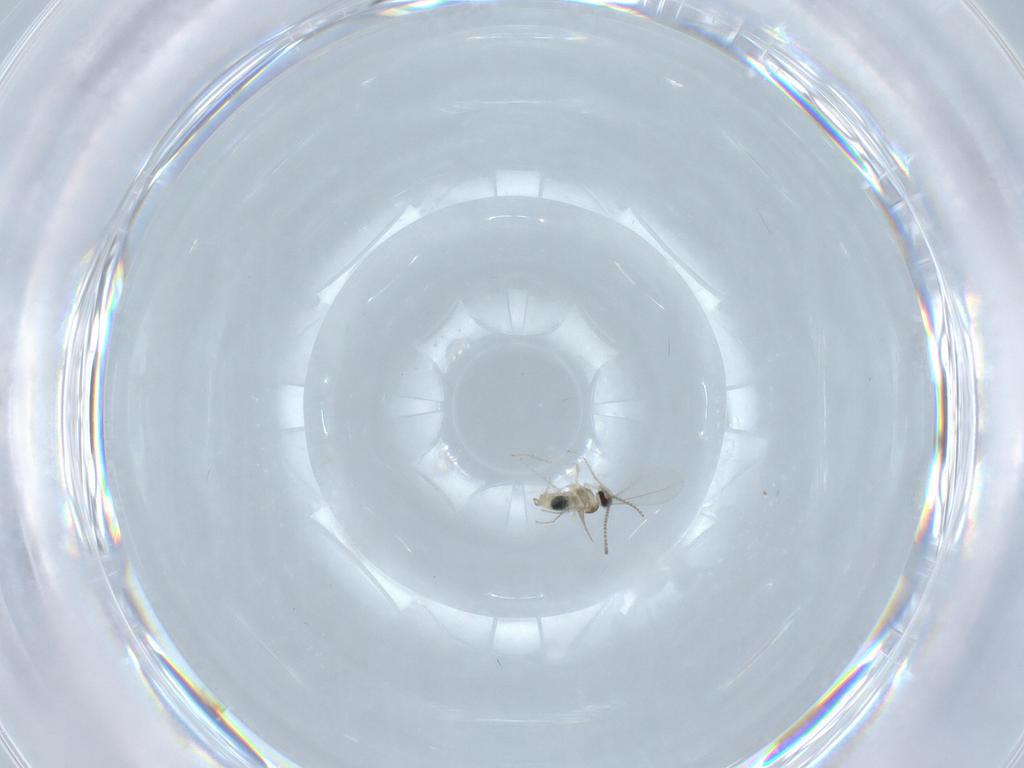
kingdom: Animalia
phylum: Arthropoda
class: Insecta
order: Diptera
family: Cecidomyiidae
